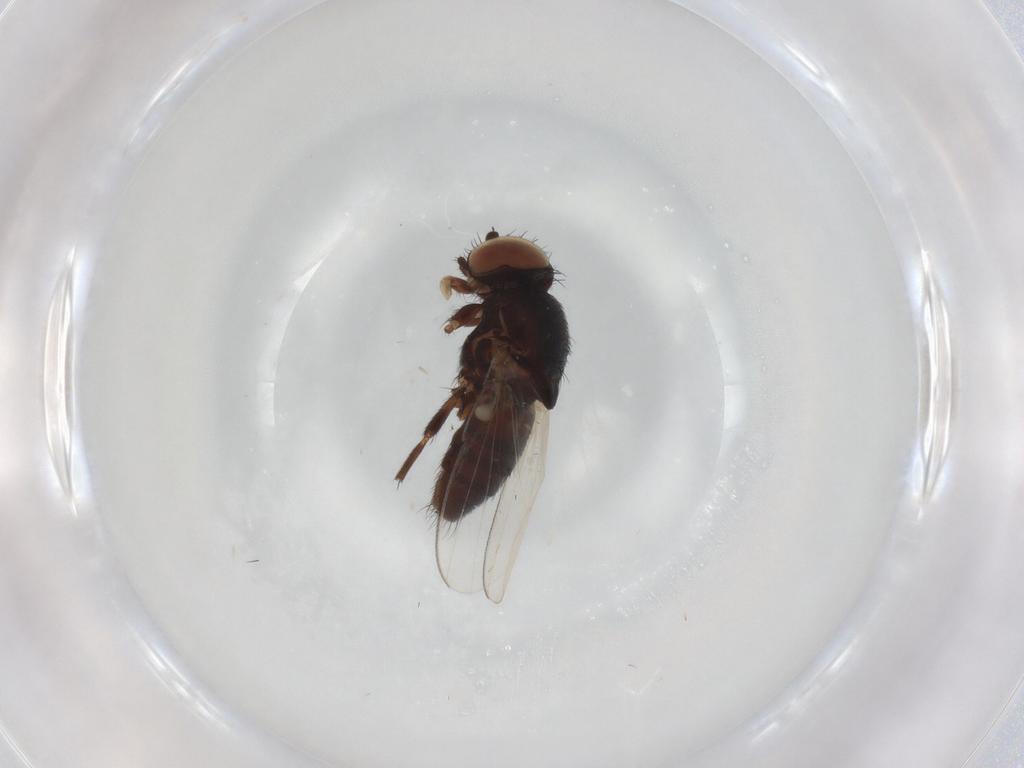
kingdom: Animalia
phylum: Arthropoda
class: Insecta
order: Diptera
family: Milichiidae
